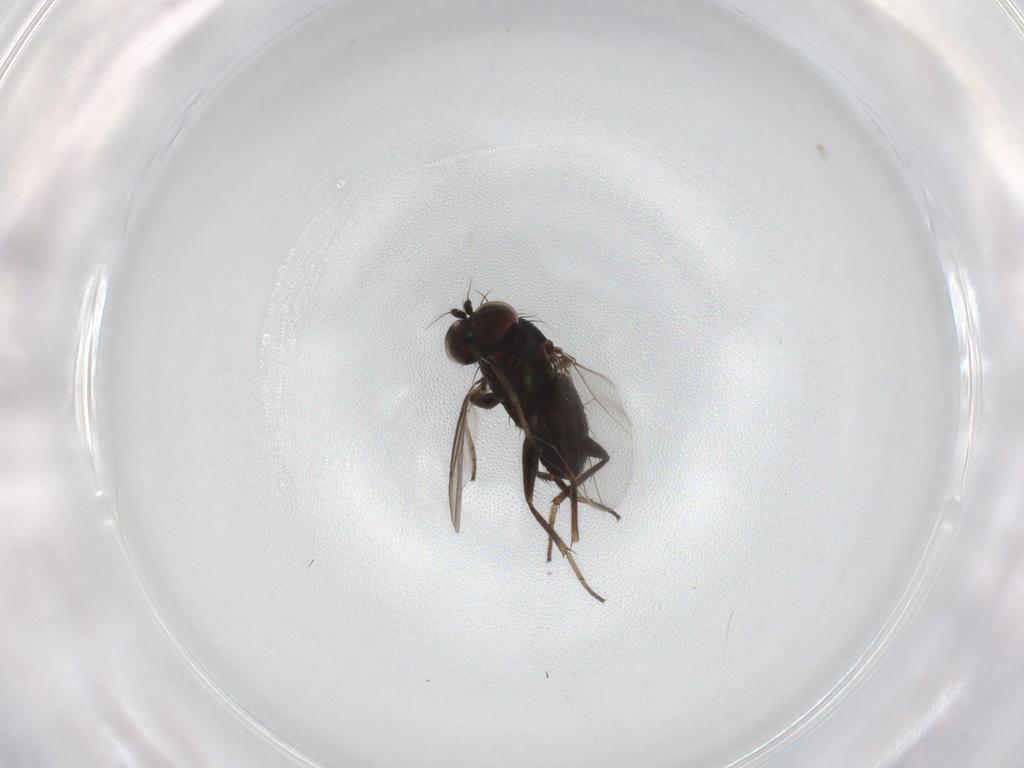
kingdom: Animalia
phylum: Arthropoda
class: Insecta
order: Diptera
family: Dolichopodidae
